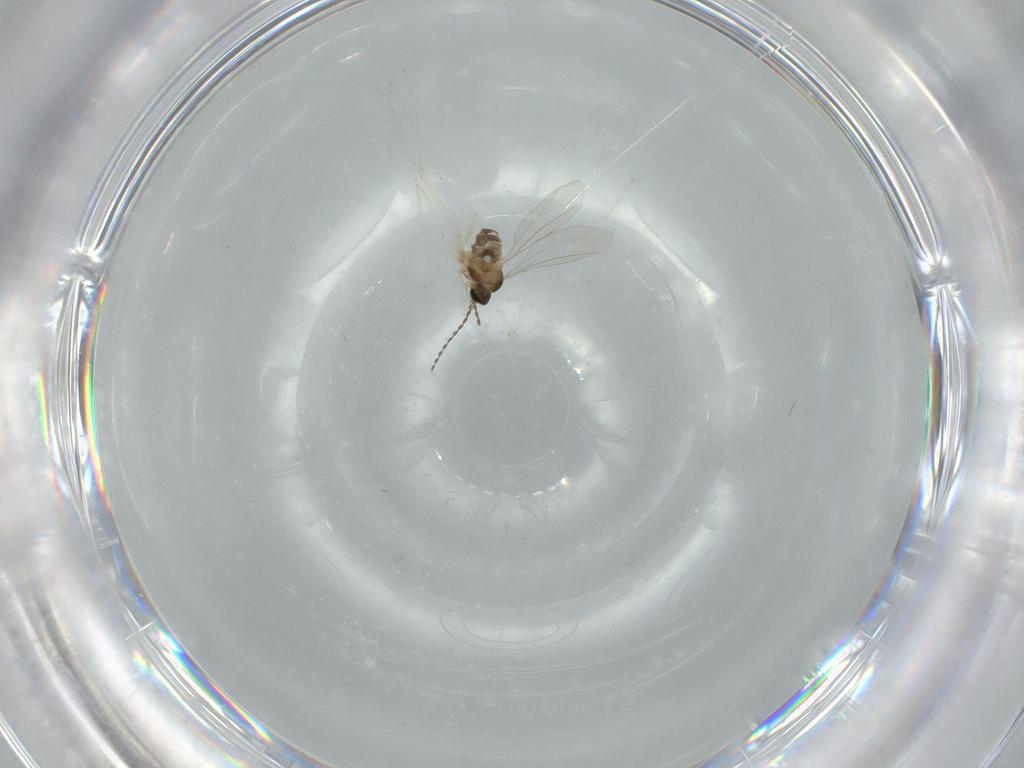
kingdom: Animalia
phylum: Arthropoda
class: Insecta
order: Diptera
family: Cecidomyiidae
